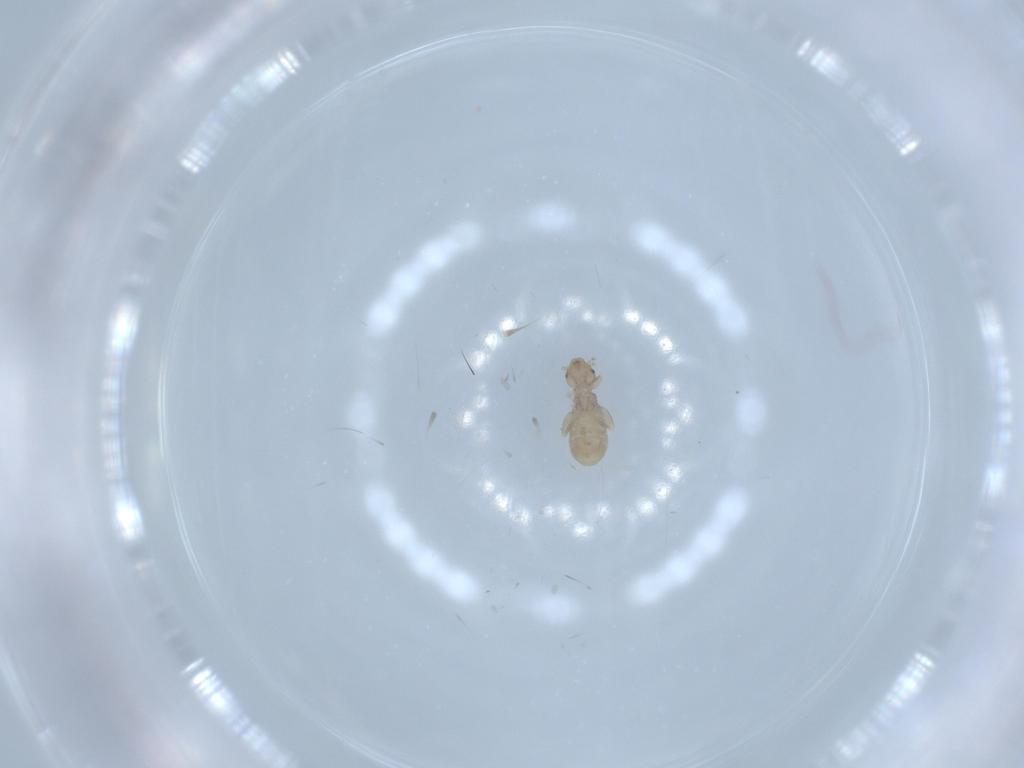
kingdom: Animalia
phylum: Arthropoda
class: Insecta
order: Psocodea
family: Liposcelididae
